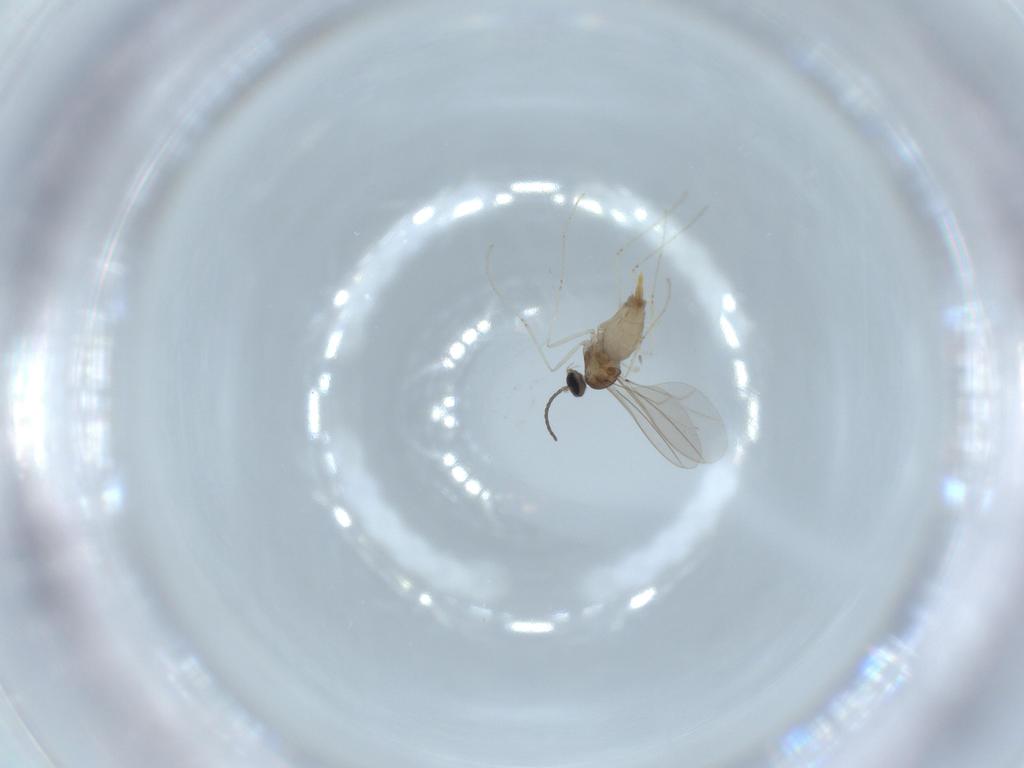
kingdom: Animalia
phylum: Arthropoda
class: Insecta
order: Diptera
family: Cecidomyiidae
